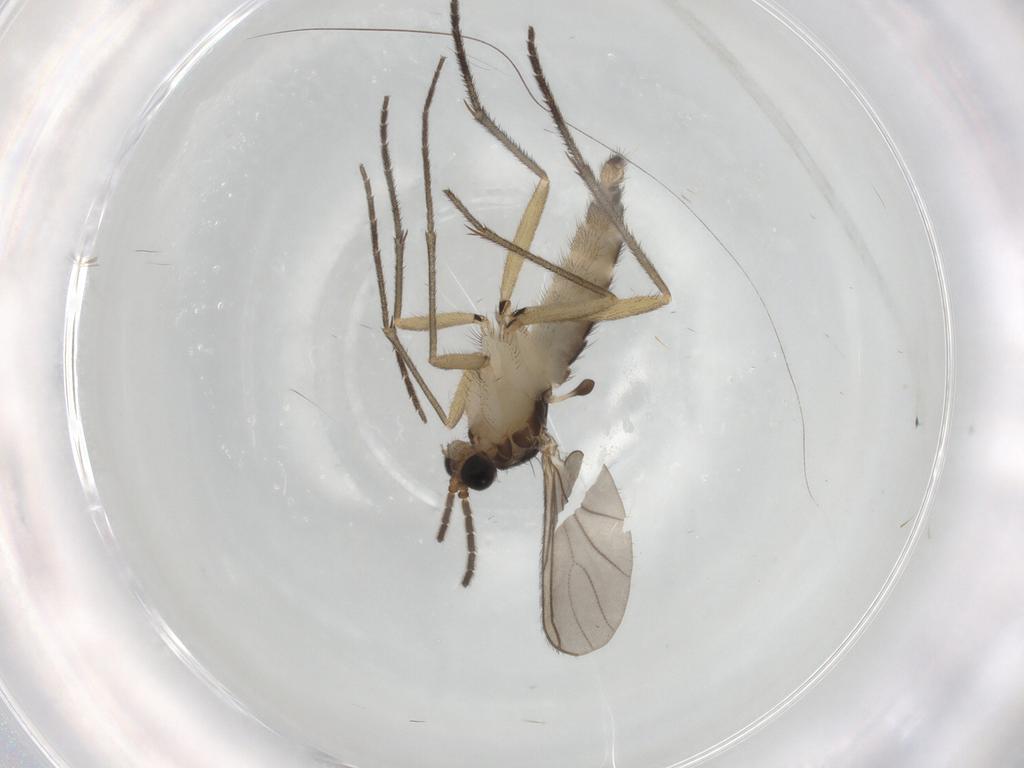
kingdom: Animalia
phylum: Arthropoda
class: Insecta
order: Diptera
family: Sciaridae
